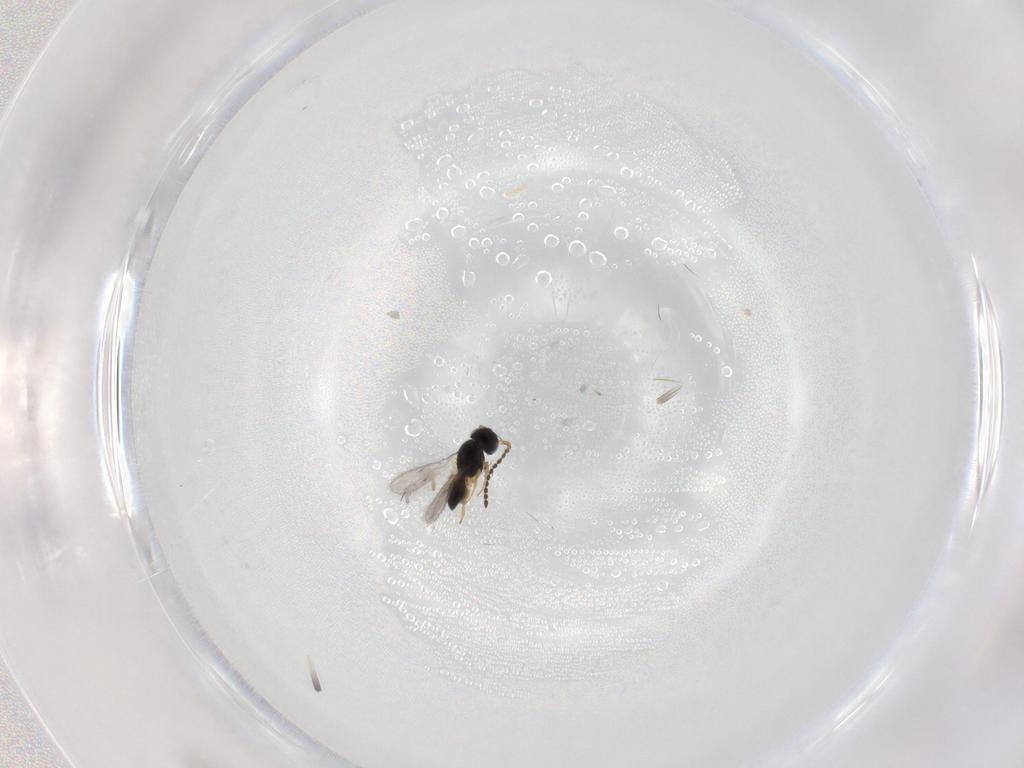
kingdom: Animalia
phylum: Arthropoda
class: Insecta
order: Hymenoptera
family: Scelionidae
